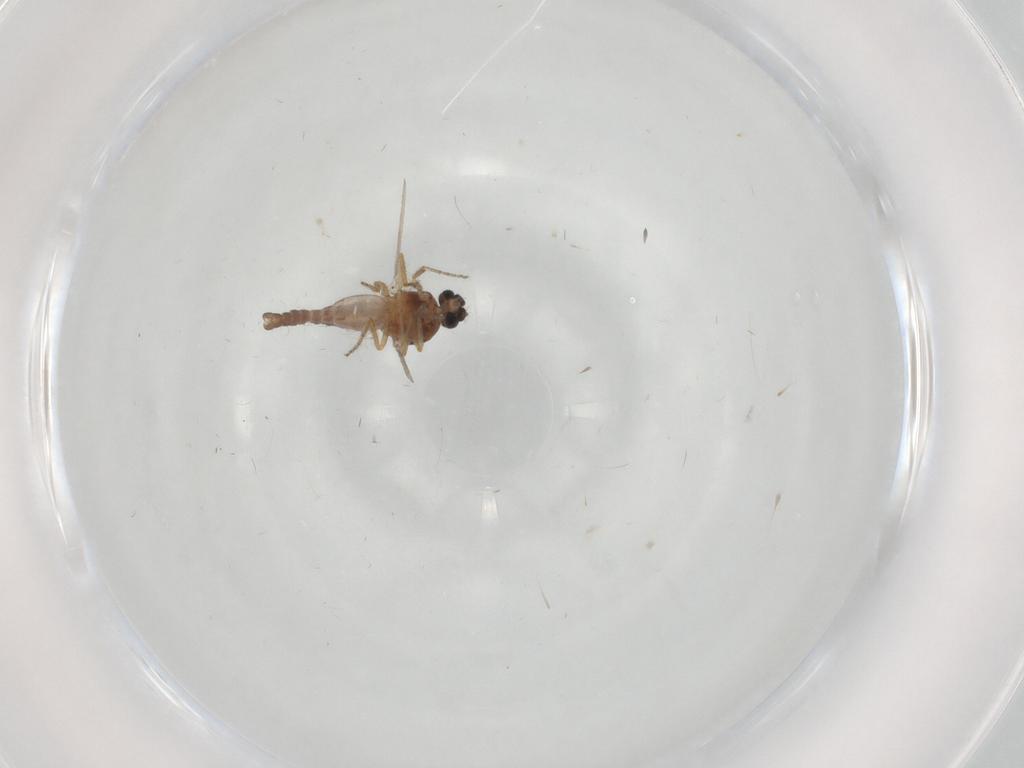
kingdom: Animalia
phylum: Arthropoda
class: Insecta
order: Diptera
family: Ceratopogonidae
